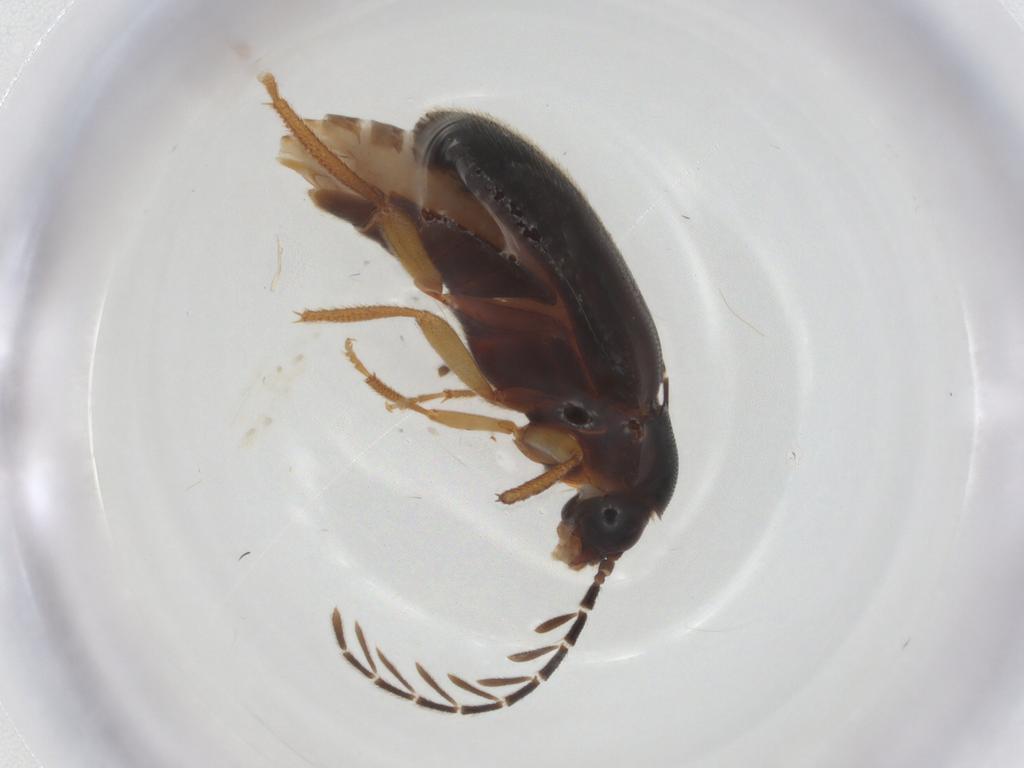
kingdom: Animalia
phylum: Arthropoda
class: Insecta
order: Coleoptera
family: Ptilodactylidae
